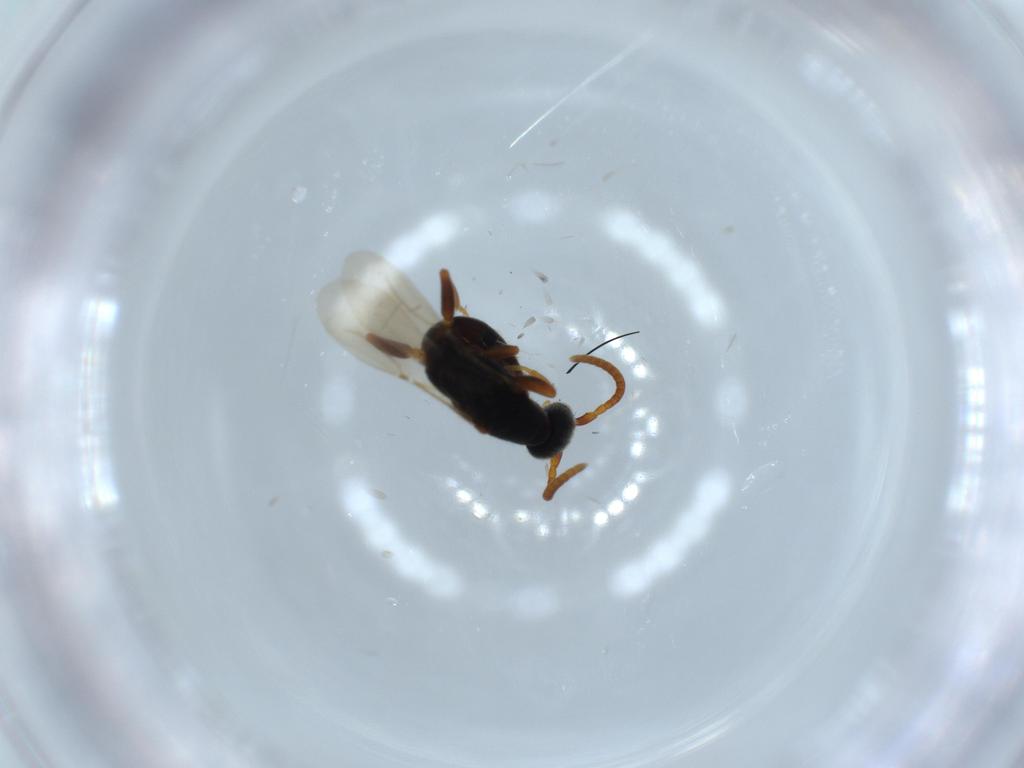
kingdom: Animalia
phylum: Arthropoda
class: Insecta
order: Hymenoptera
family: Bethylidae
